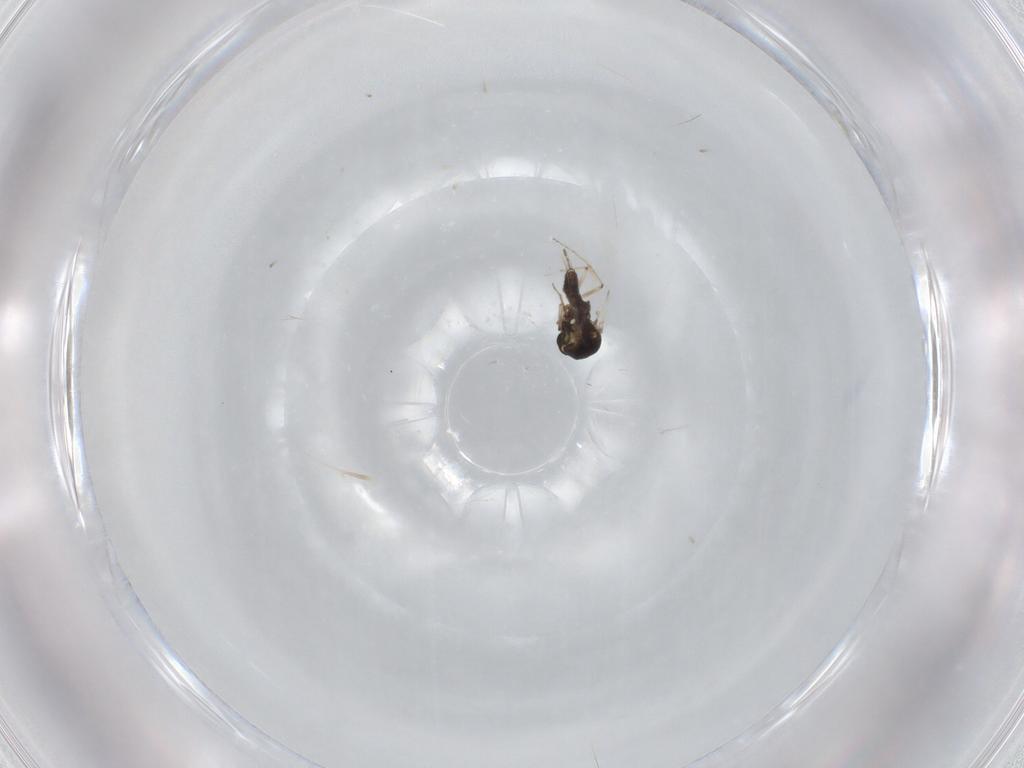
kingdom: Animalia
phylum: Arthropoda
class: Insecta
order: Diptera
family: Ceratopogonidae
